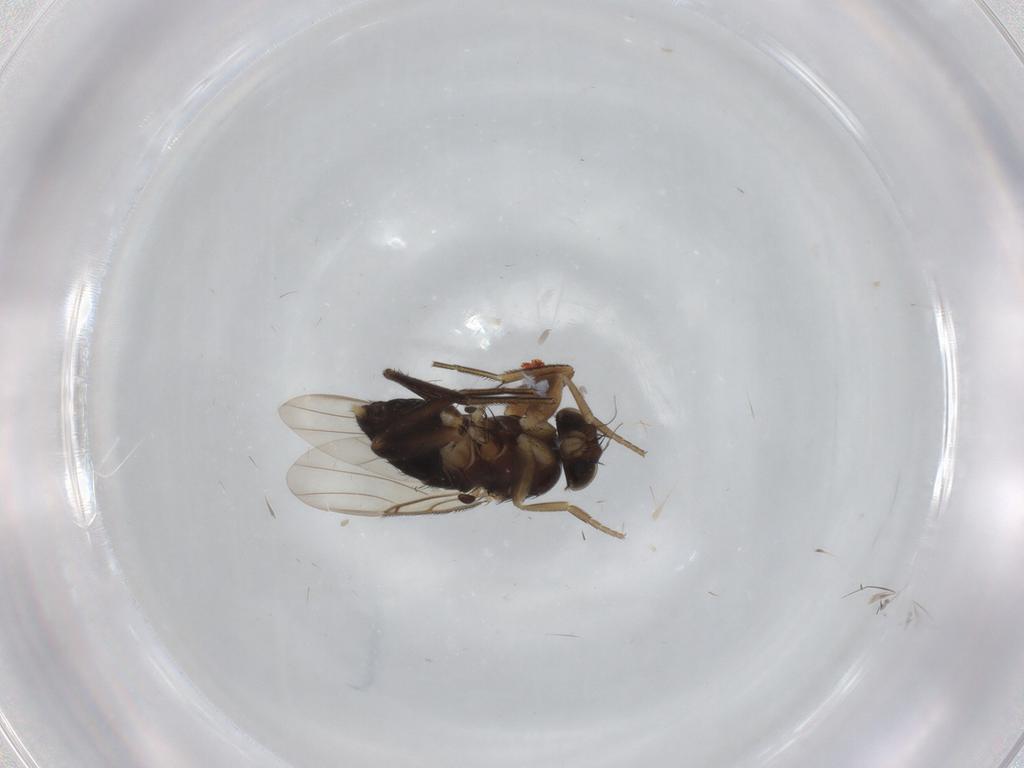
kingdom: Animalia
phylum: Arthropoda
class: Insecta
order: Diptera
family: Phoridae
